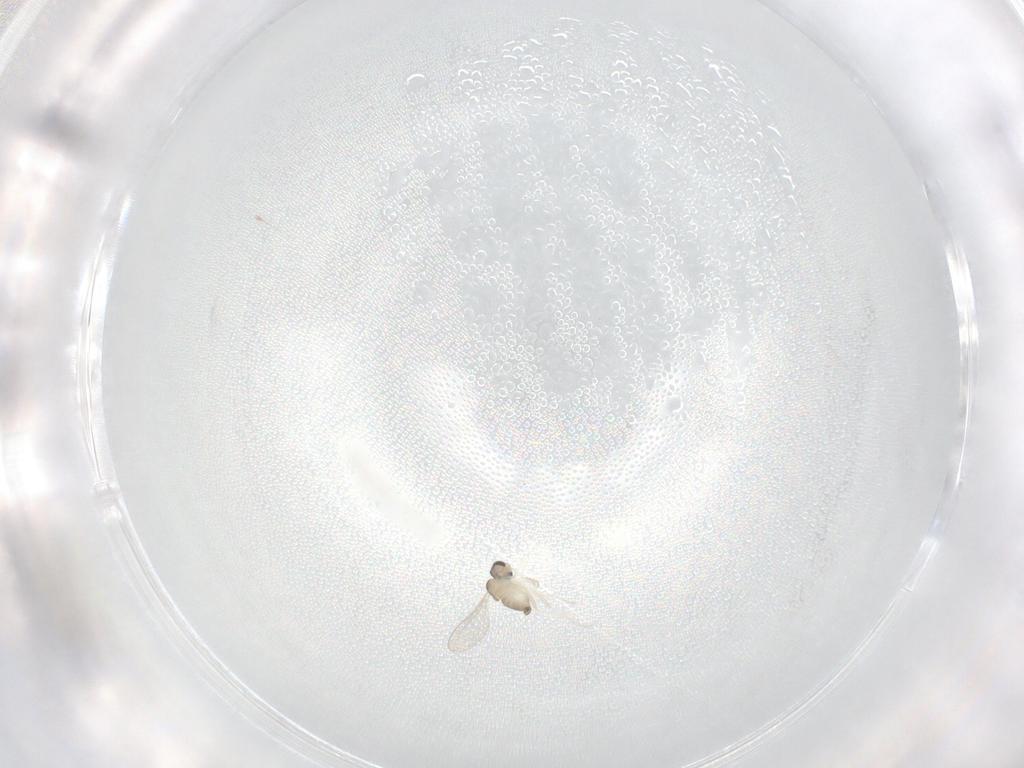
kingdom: Animalia
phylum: Arthropoda
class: Insecta
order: Diptera
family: Cecidomyiidae
